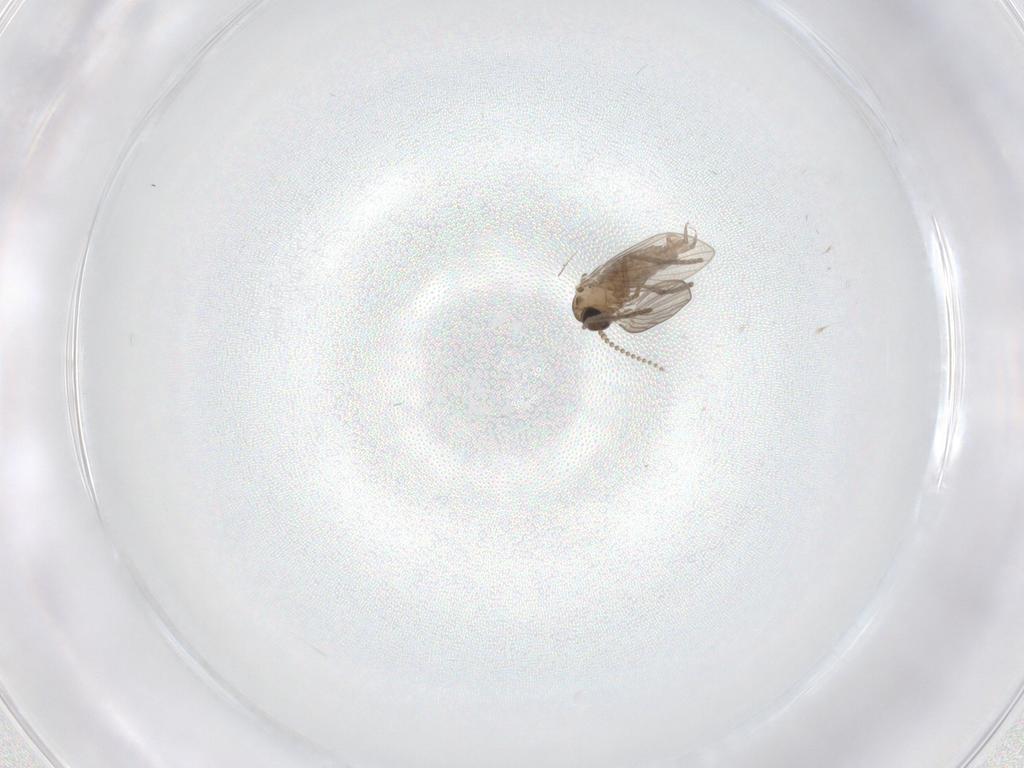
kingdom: Animalia
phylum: Arthropoda
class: Insecta
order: Diptera
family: Psychodidae
